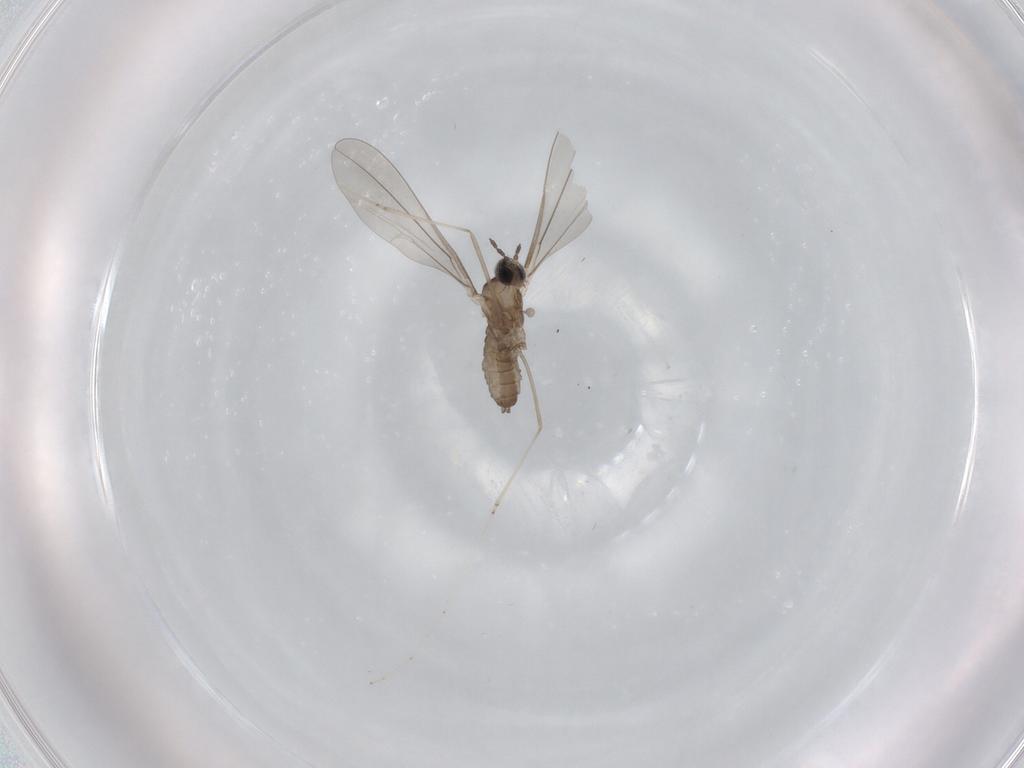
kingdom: Animalia
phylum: Arthropoda
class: Insecta
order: Diptera
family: Cecidomyiidae
